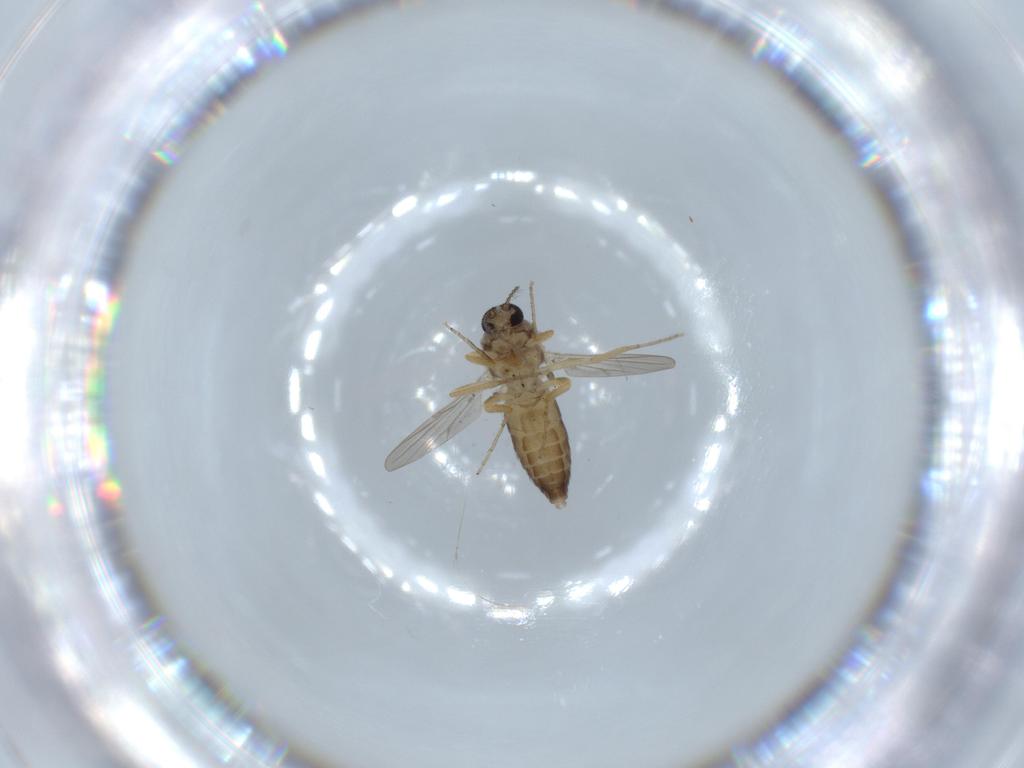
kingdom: Animalia
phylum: Arthropoda
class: Insecta
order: Diptera
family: Ceratopogonidae
